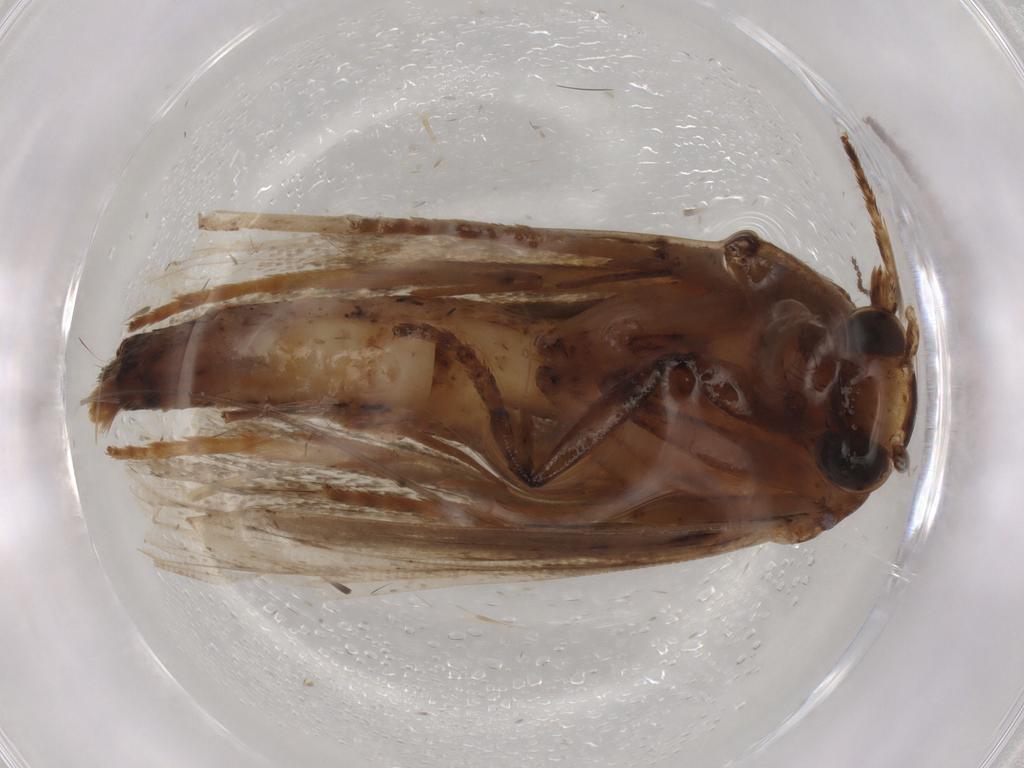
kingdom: Animalia
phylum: Arthropoda
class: Insecta
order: Lepidoptera
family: Immidae
